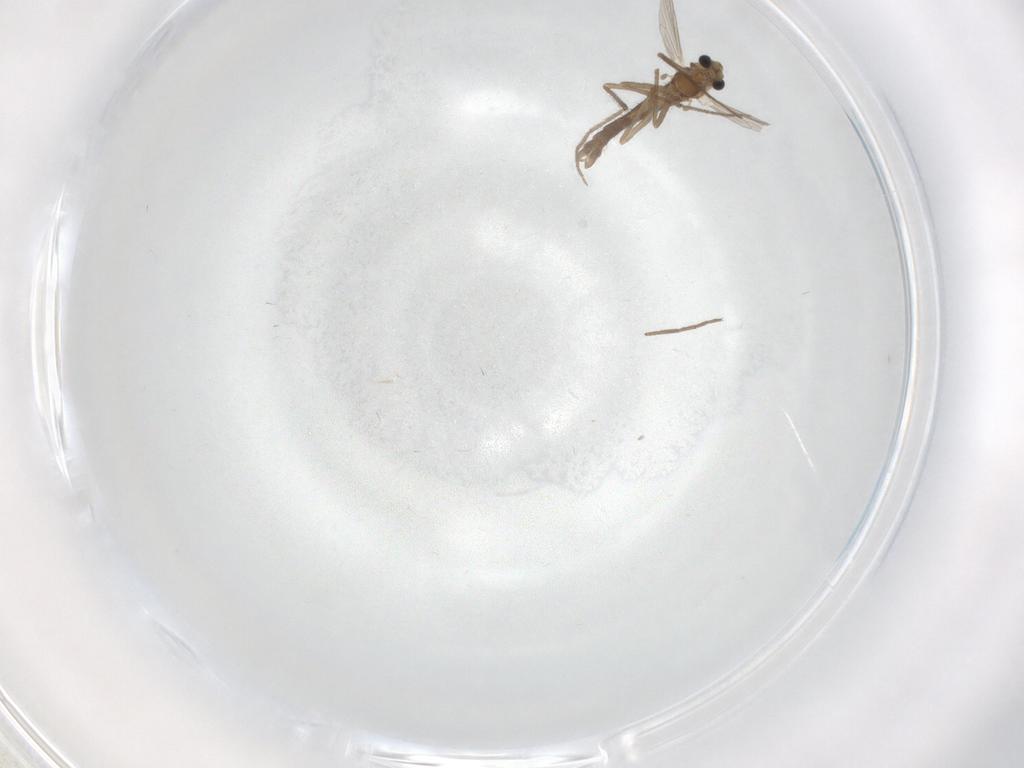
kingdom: Animalia
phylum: Arthropoda
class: Insecta
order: Diptera
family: Chironomidae
